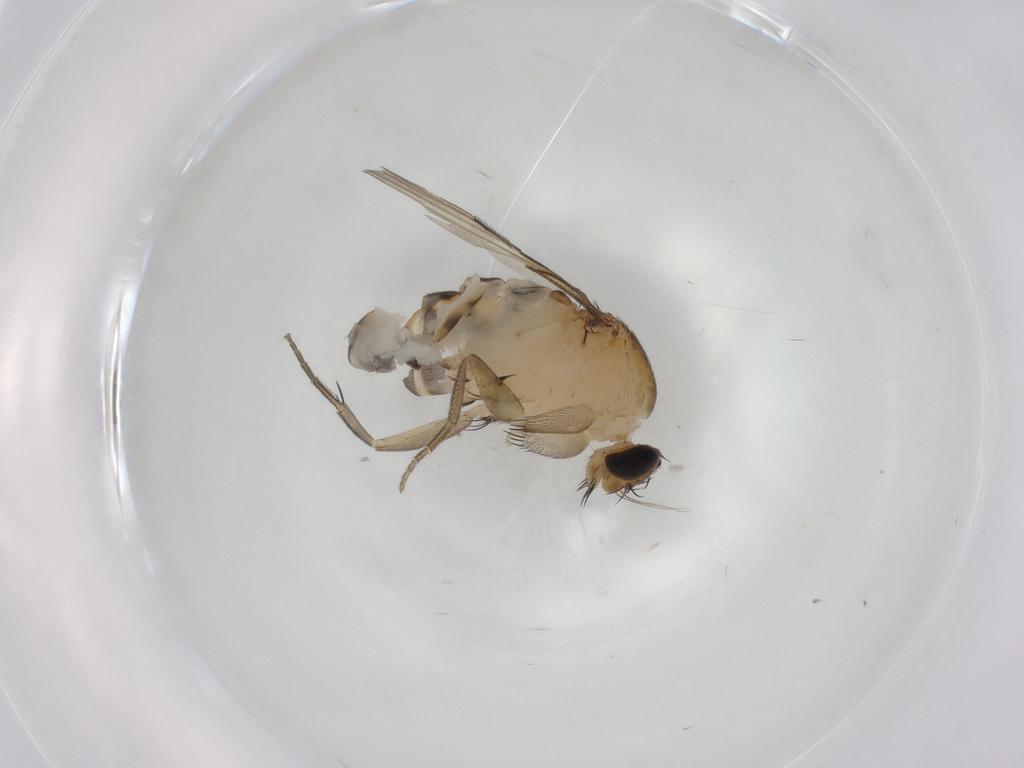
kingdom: Animalia
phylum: Arthropoda
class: Insecta
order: Diptera
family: Phoridae
